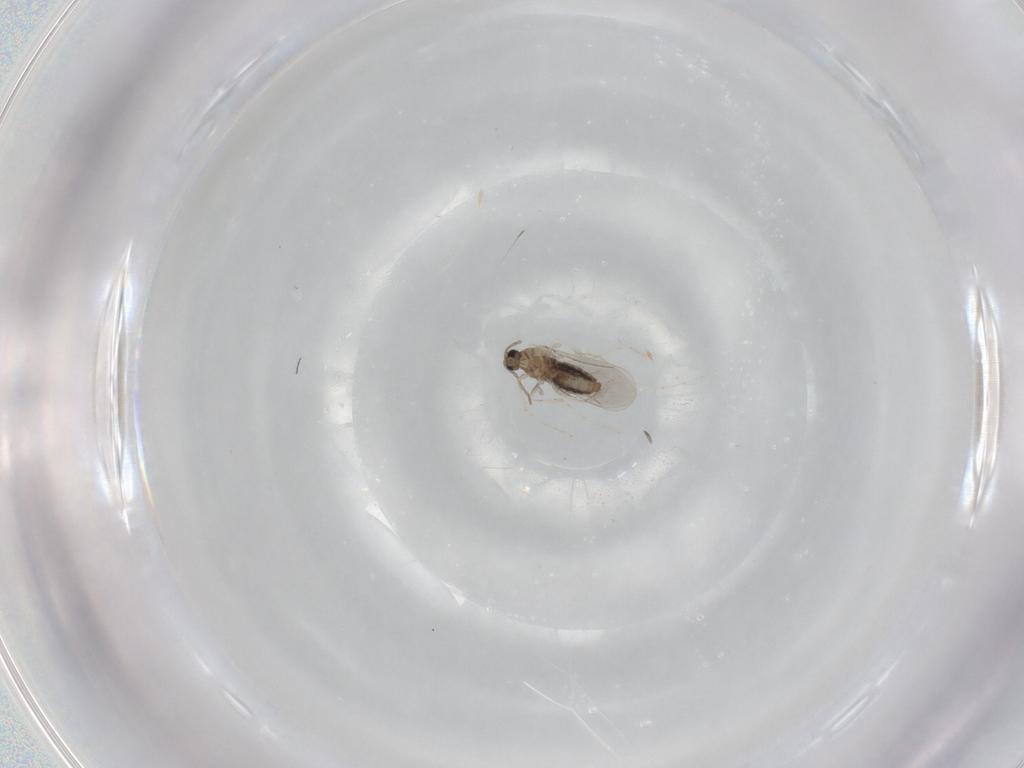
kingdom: Animalia
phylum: Arthropoda
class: Insecta
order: Diptera
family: Cecidomyiidae
